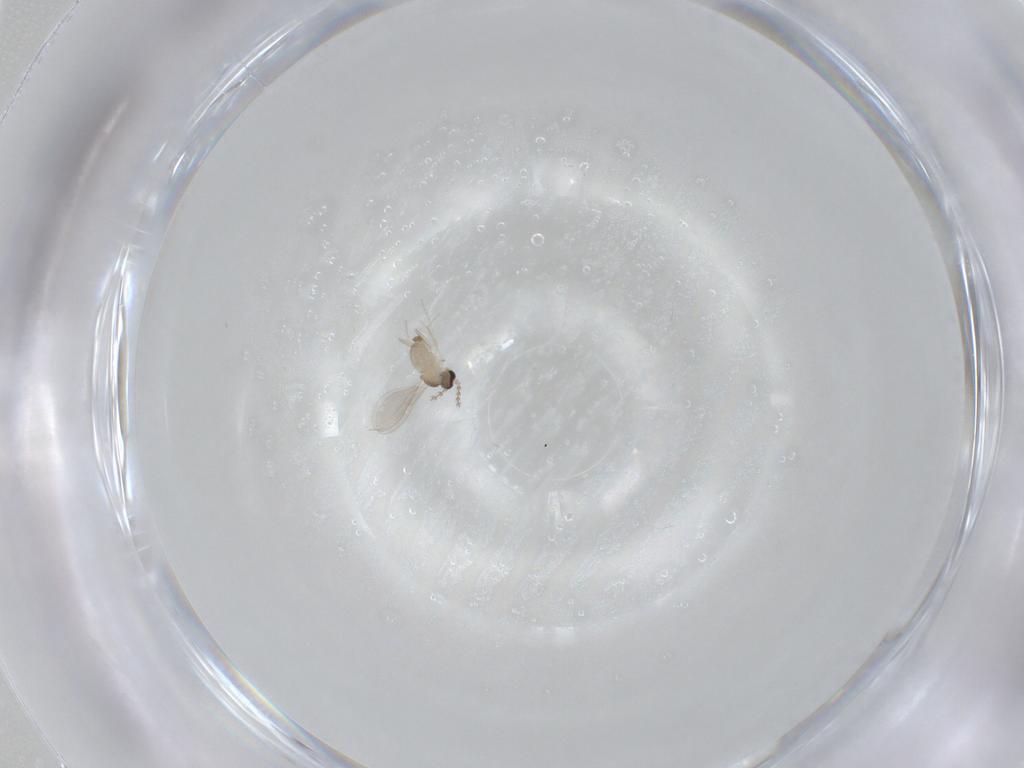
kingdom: Animalia
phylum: Arthropoda
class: Insecta
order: Diptera
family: Cecidomyiidae
